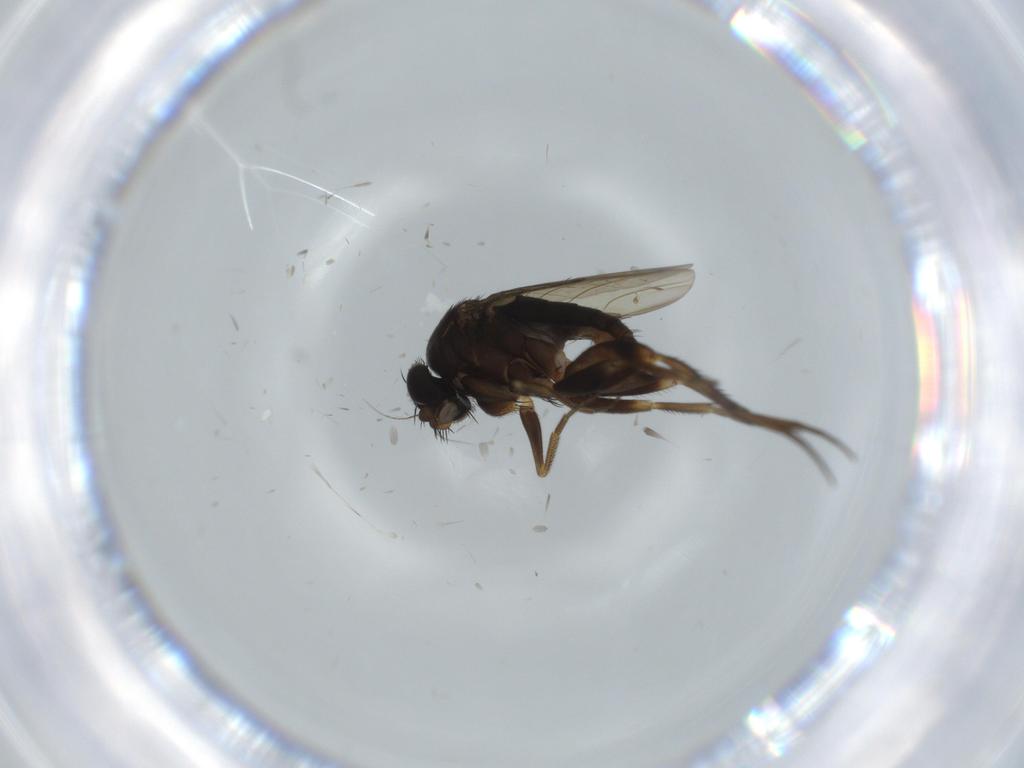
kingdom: Animalia
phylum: Arthropoda
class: Insecta
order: Diptera
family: Phoridae
